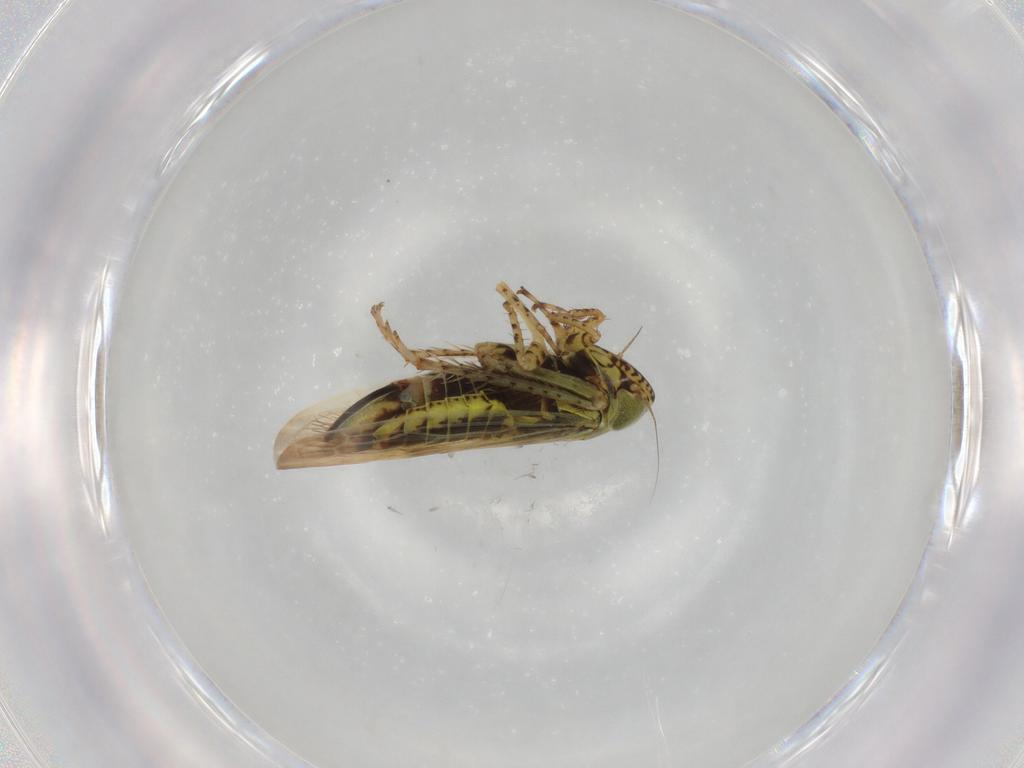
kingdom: Animalia
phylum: Arthropoda
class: Insecta
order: Hemiptera
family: Cicadellidae
